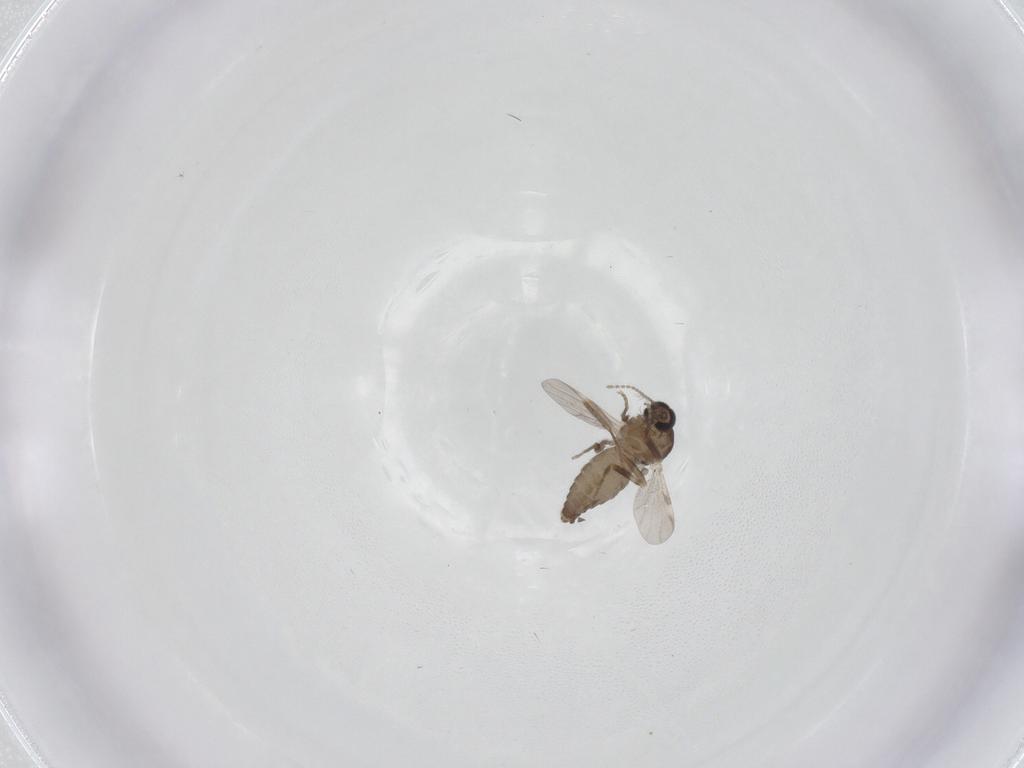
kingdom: Animalia
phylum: Arthropoda
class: Insecta
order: Diptera
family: Ceratopogonidae
